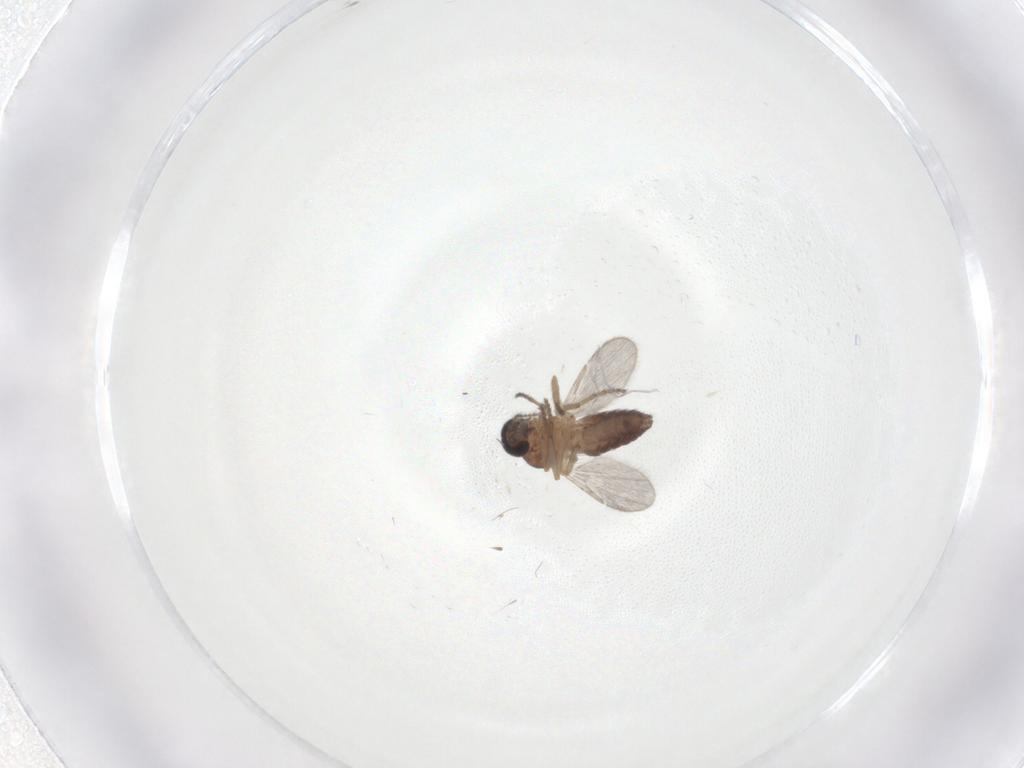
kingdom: Animalia
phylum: Arthropoda
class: Insecta
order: Diptera
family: Ceratopogonidae
